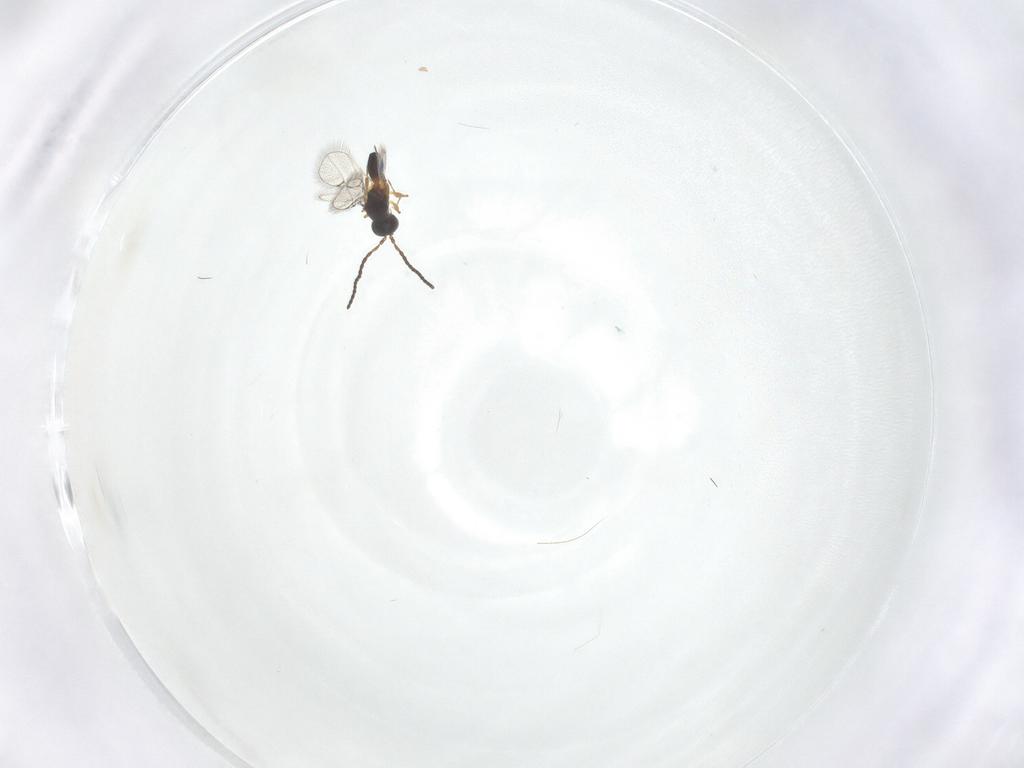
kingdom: Animalia
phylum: Arthropoda
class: Insecta
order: Hymenoptera
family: Figitidae
